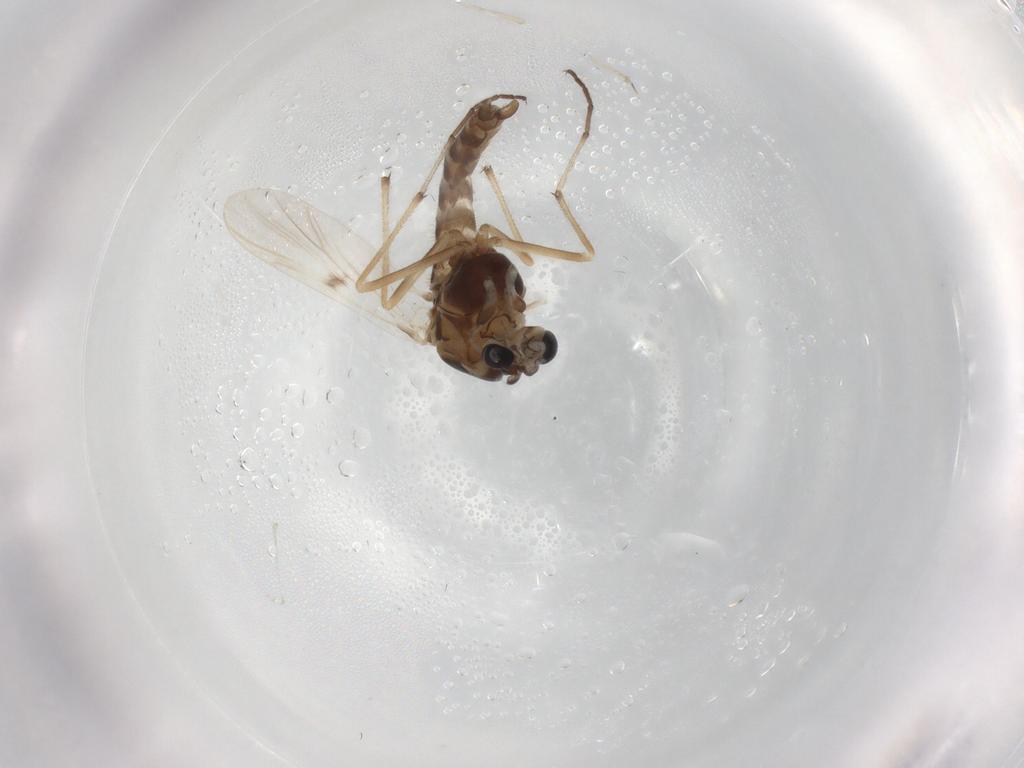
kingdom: Animalia
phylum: Arthropoda
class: Insecta
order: Diptera
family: Chironomidae
